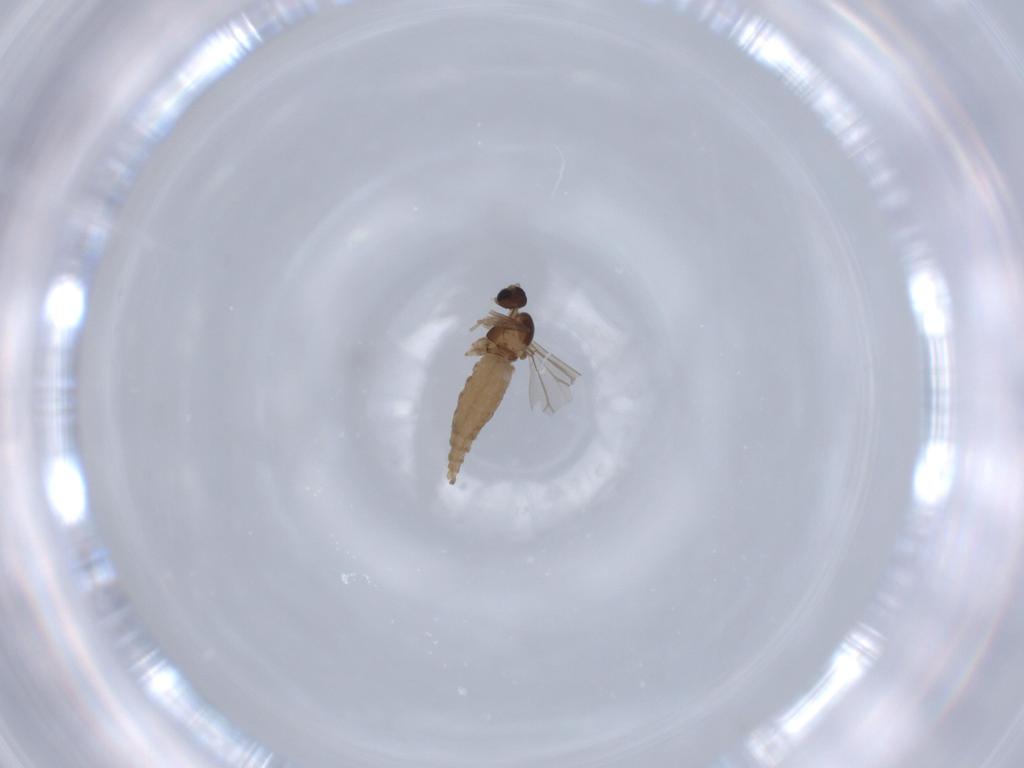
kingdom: Animalia
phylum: Arthropoda
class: Insecta
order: Diptera
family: Cecidomyiidae
